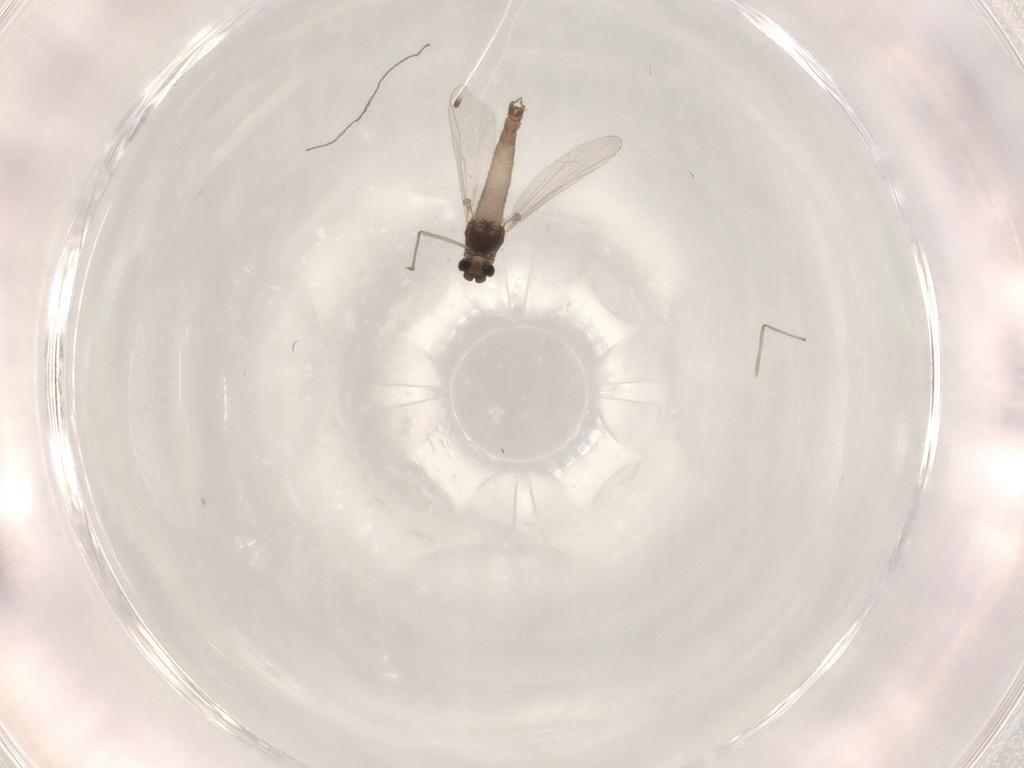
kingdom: Animalia
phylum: Arthropoda
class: Insecta
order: Diptera
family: Chironomidae
